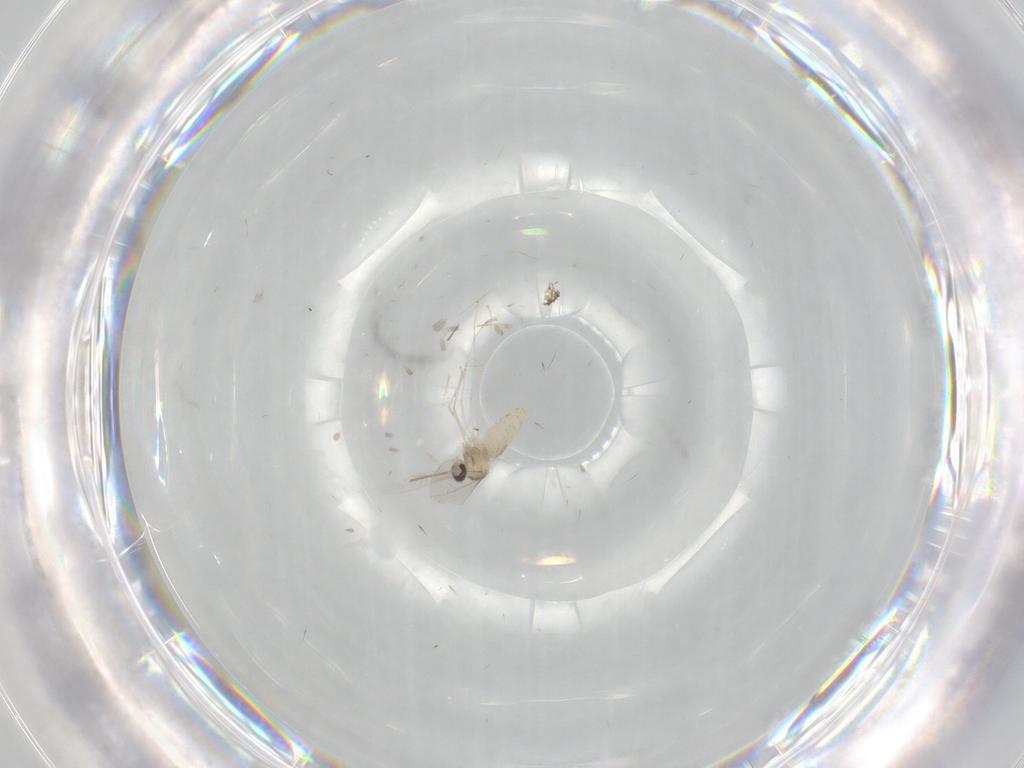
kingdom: Animalia
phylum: Arthropoda
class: Insecta
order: Diptera
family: Cecidomyiidae
